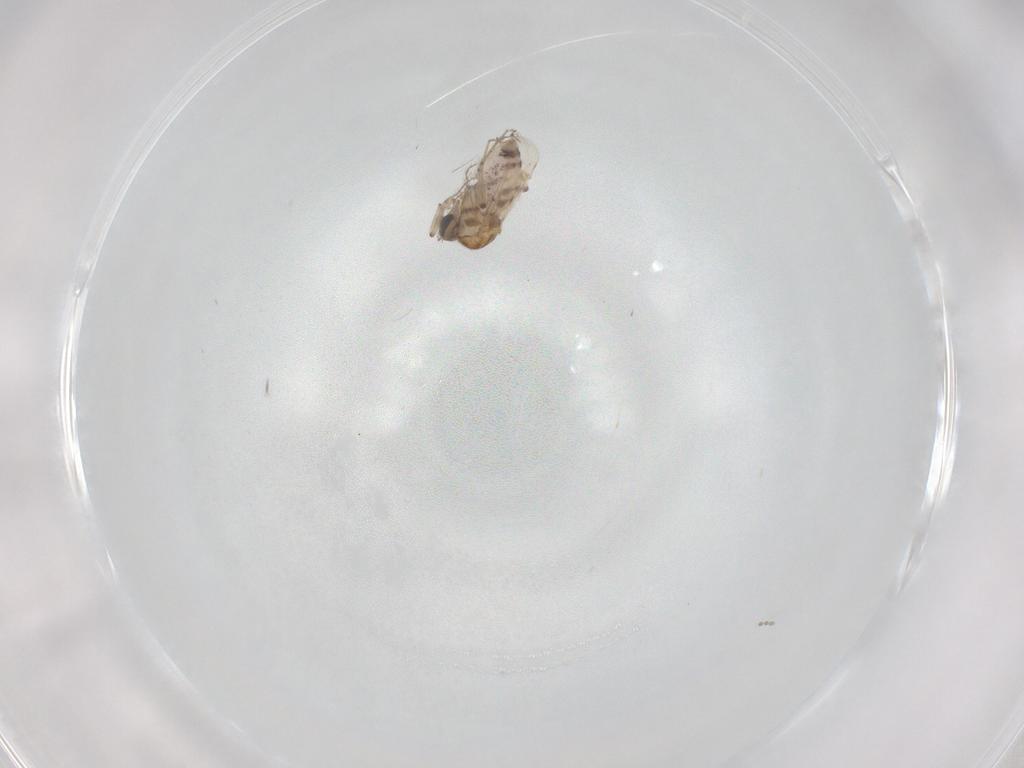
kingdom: Animalia
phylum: Arthropoda
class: Insecta
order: Diptera
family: Ceratopogonidae
